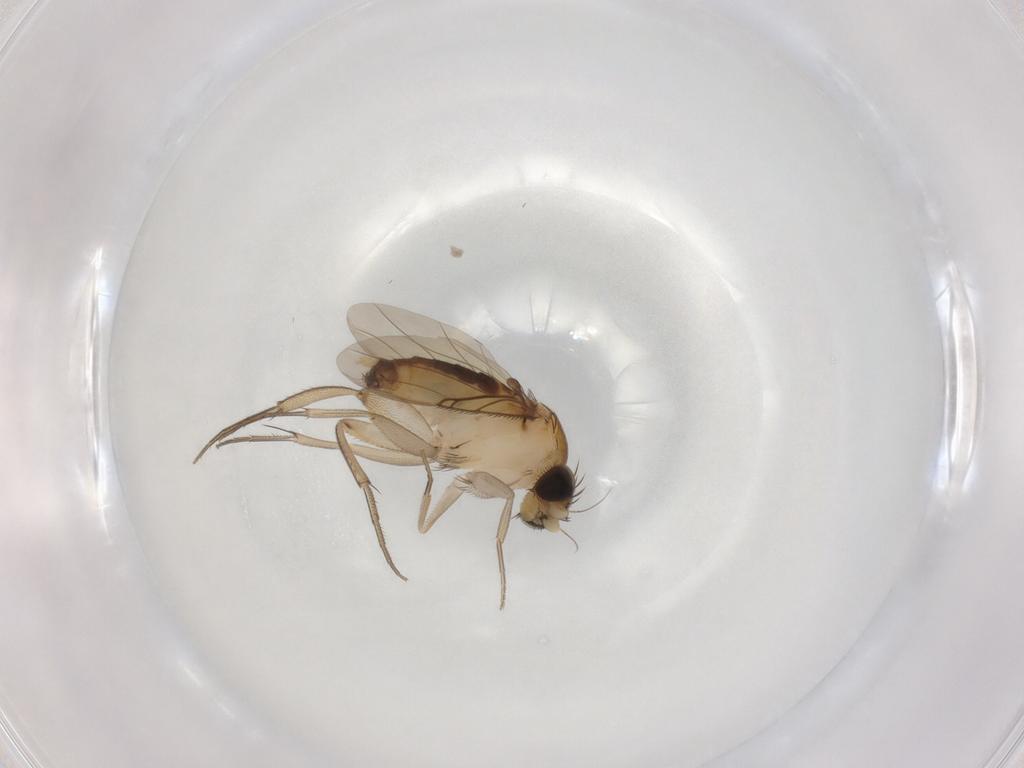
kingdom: Animalia
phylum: Arthropoda
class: Insecta
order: Diptera
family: Phoridae
